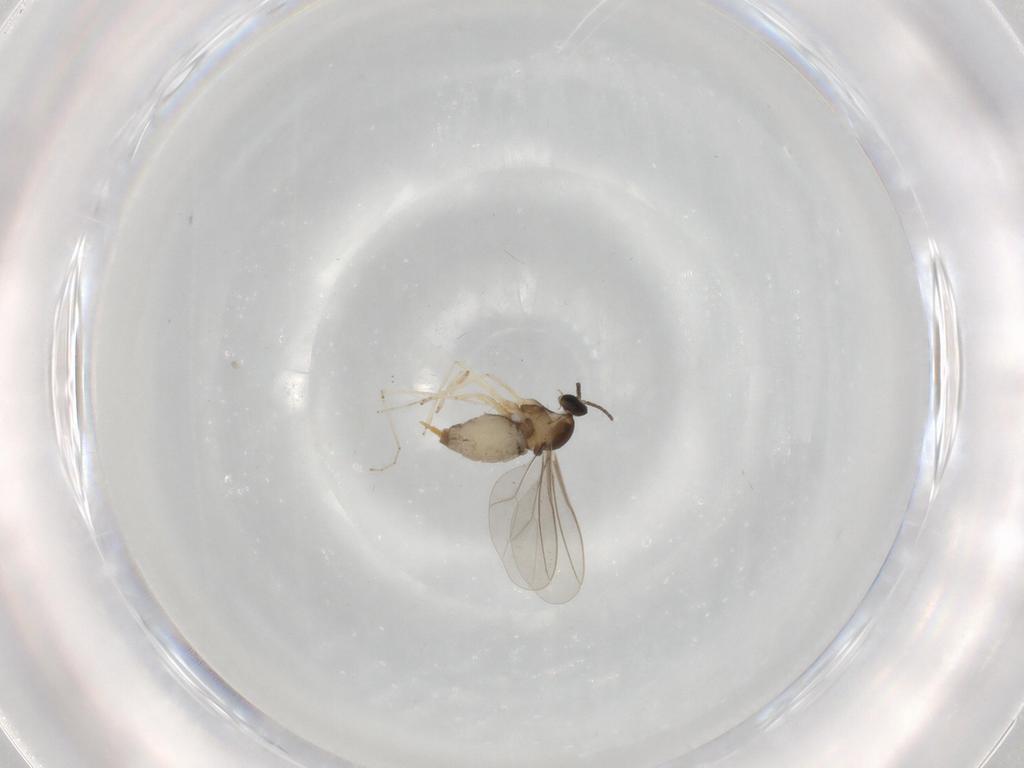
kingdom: Animalia
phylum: Arthropoda
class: Insecta
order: Diptera
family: Cecidomyiidae
